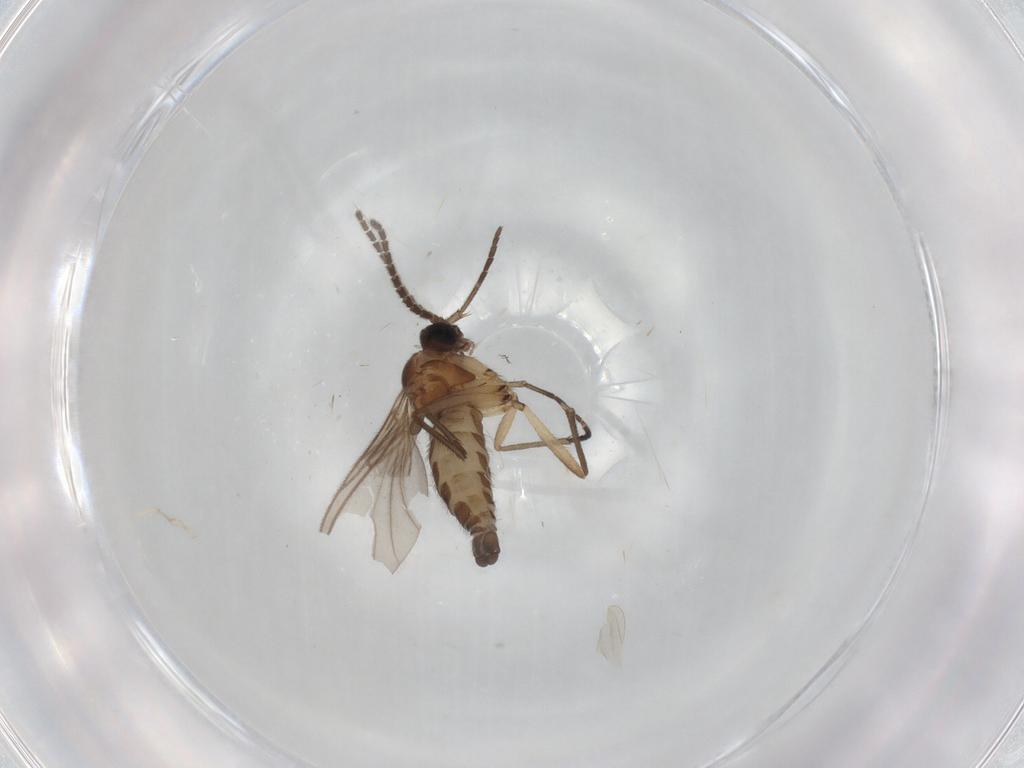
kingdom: Animalia
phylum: Arthropoda
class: Insecta
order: Diptera
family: Sciaridae
